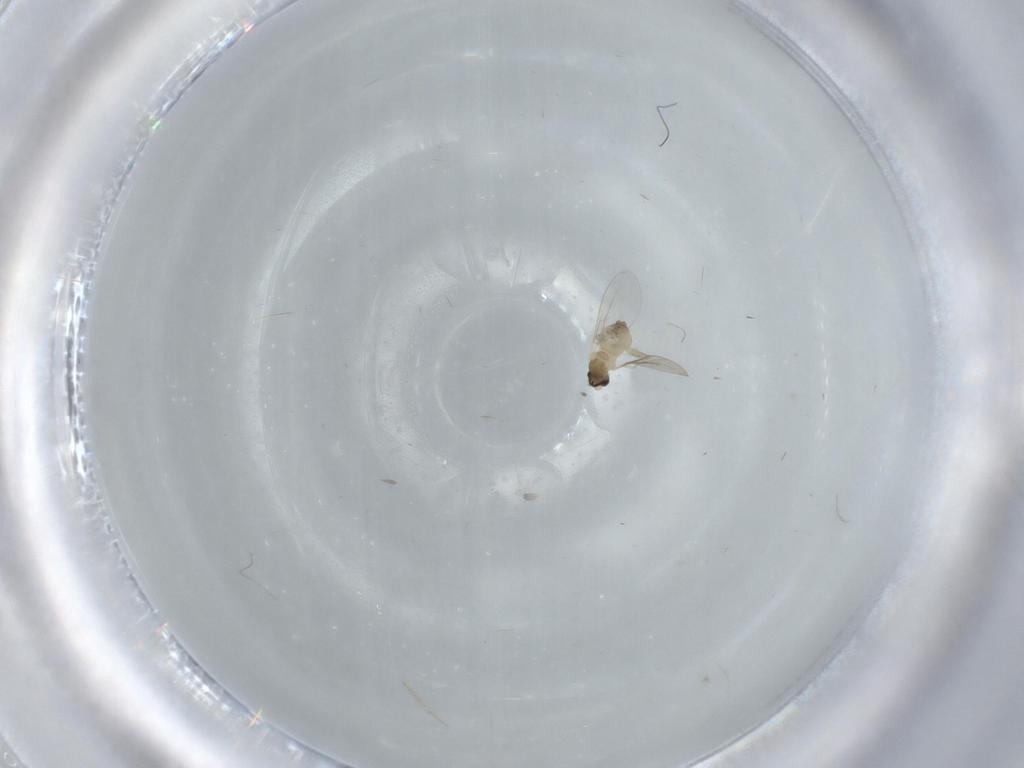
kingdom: Animalia
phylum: Arthropoda
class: Insecta
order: Diptera
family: Cecidomyiidae
